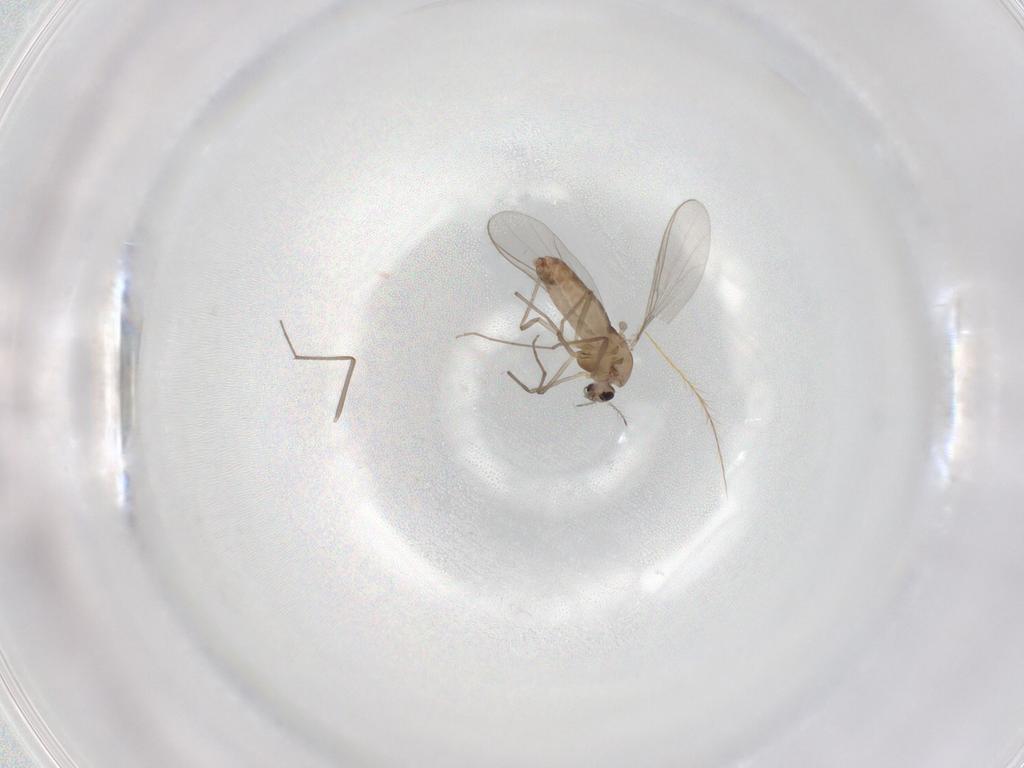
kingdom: Animalia
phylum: Arthropoda
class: Insecta
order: Diptera
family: Chironomidae
